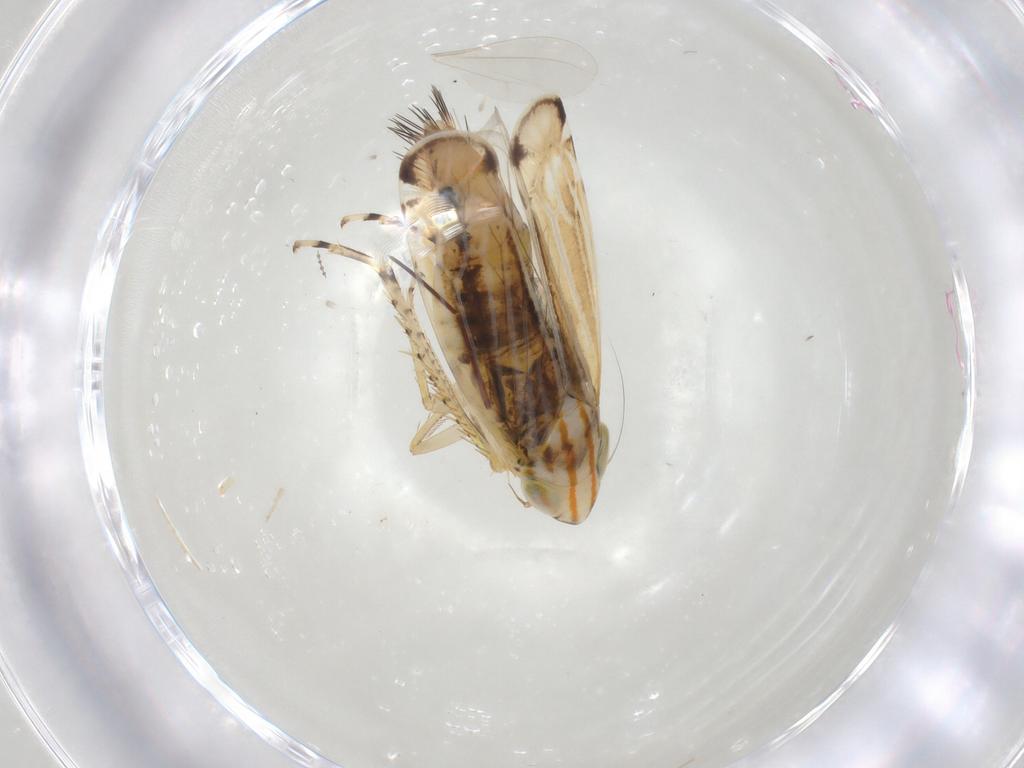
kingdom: Animalia
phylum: Arthropoda
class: Insecta
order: Hemiptera
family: Cicadellidae
